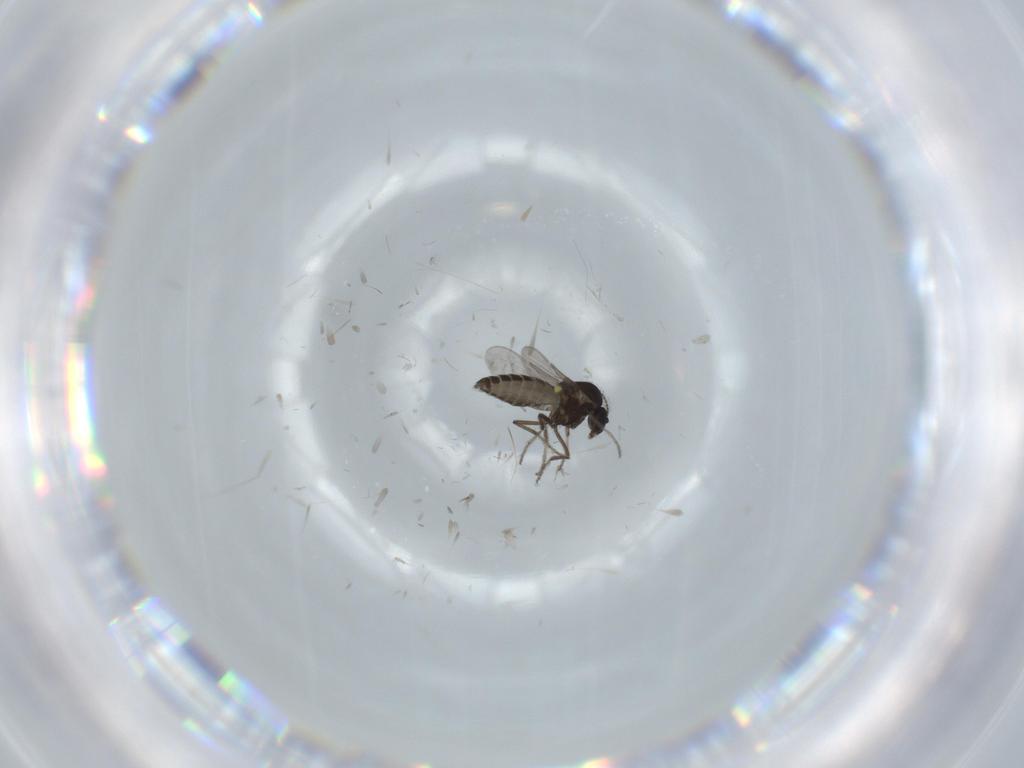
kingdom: Animalia
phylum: Arthropoda
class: Insecta
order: Diptera
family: Ceratopogonidae
